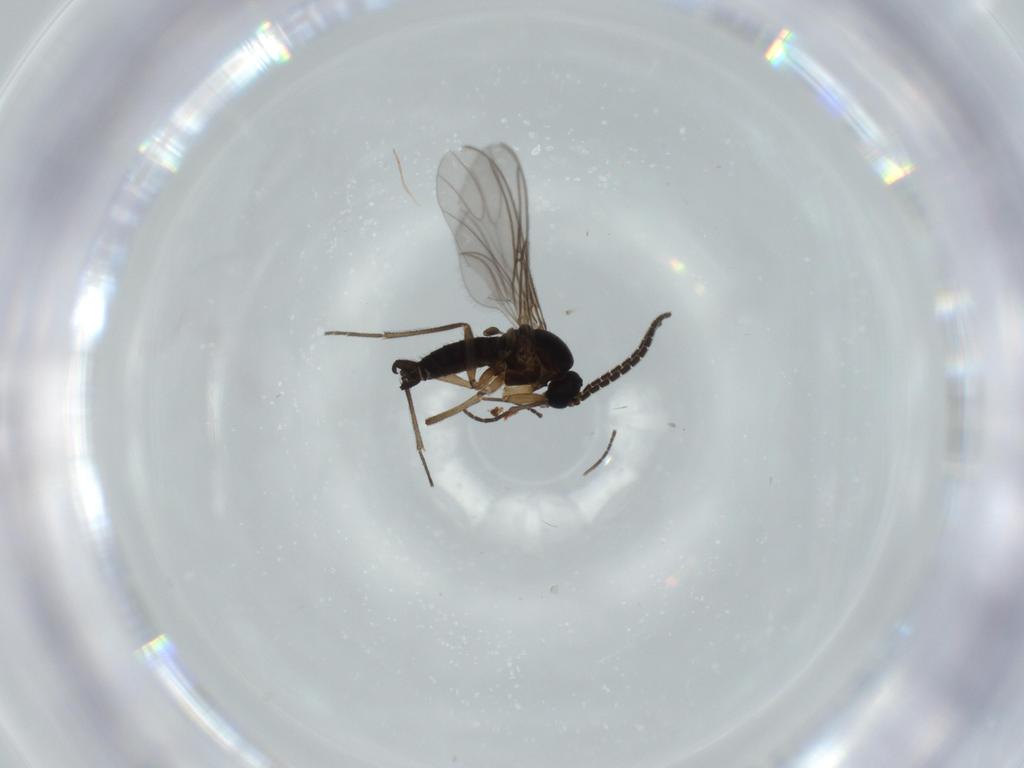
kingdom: Animalia
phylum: Arthropoda
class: Insecta
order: Diptera
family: Sciaridae
